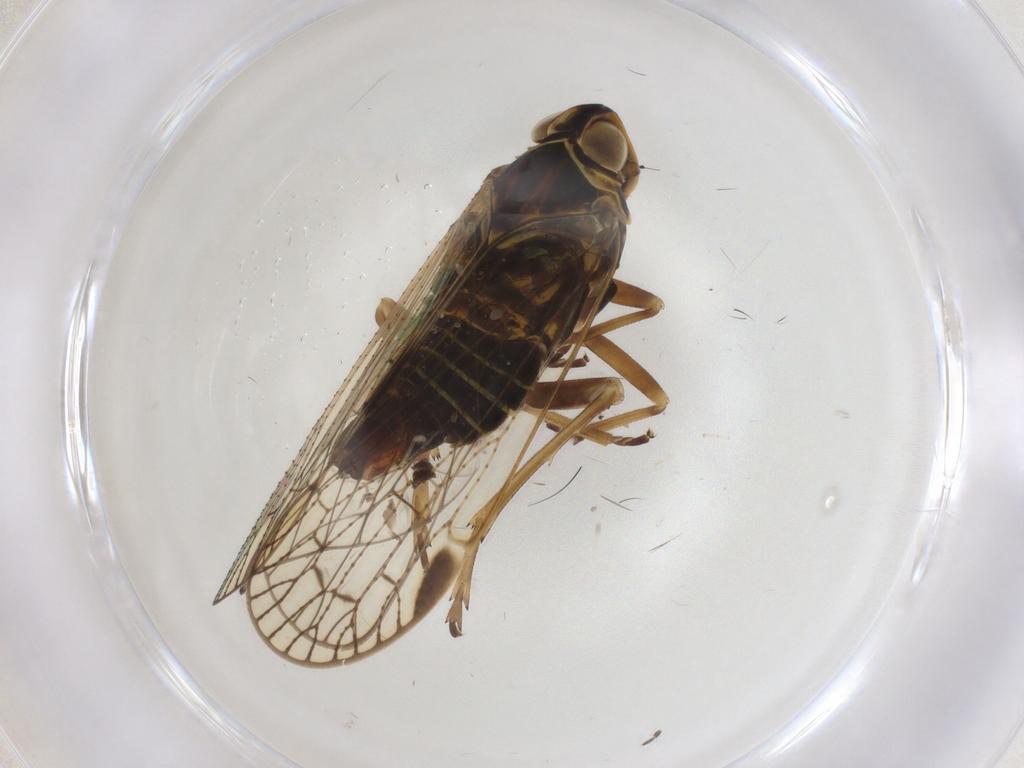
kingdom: Animalia
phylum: Arthropoda
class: Insecta
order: Hemiptera
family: Cixiidae
